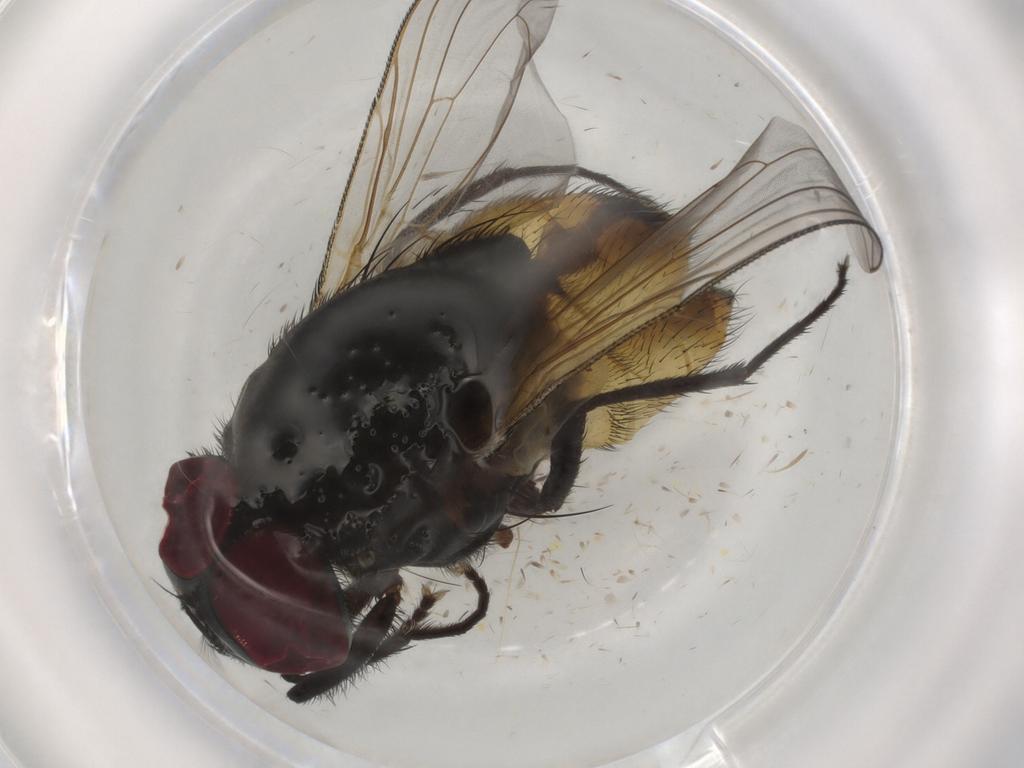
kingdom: Animalia
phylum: Arthropoda
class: Insecta
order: Diptera
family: Phoridae
